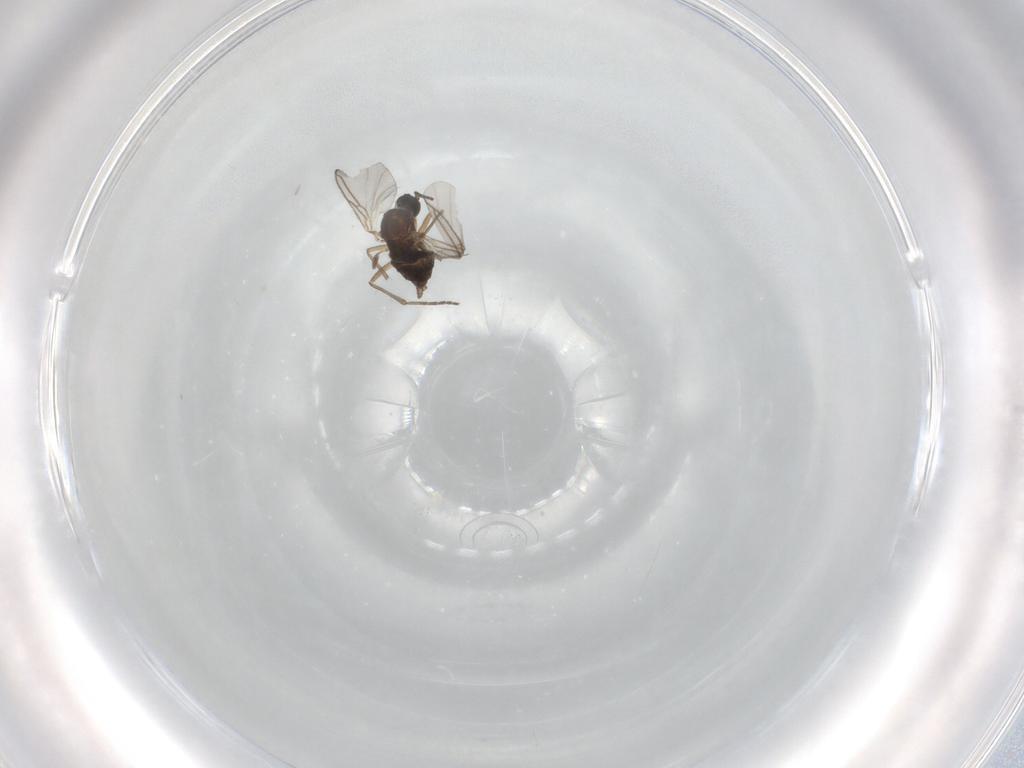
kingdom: Animalia
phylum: Arthropoda
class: Insecta
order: Diptera
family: Sciaridae
